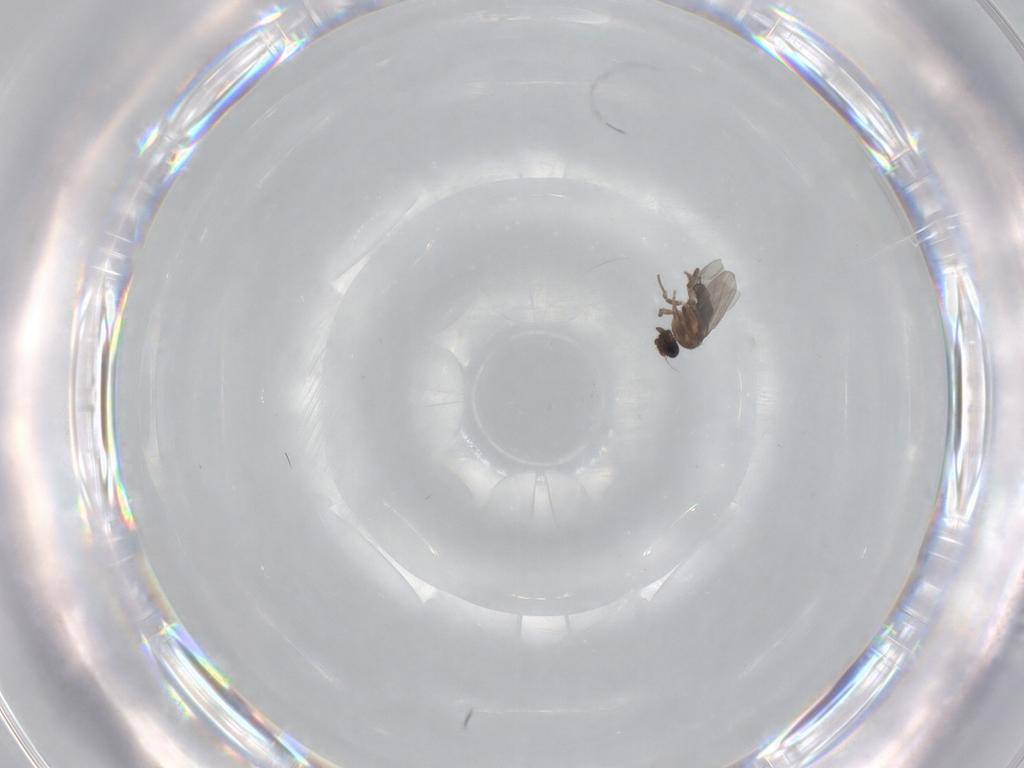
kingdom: Animalia
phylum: Arthropoda
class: Insecta
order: Diptera
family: Phoridae
